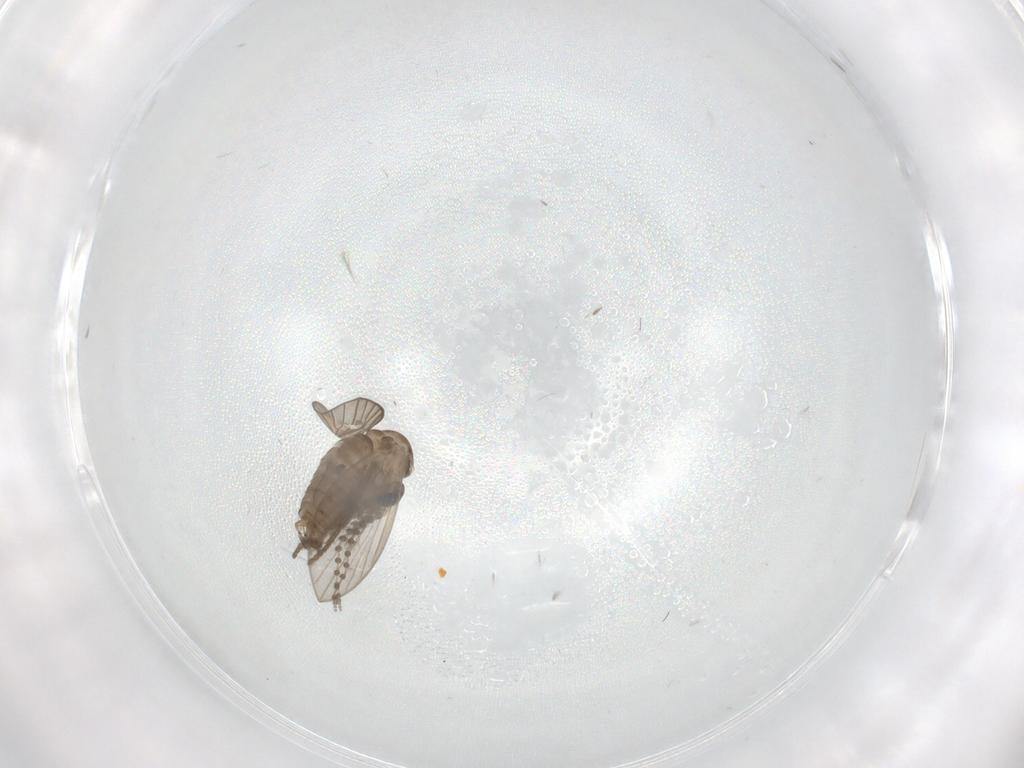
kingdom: Animalia
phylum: Arthropoda
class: Insecta
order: Diptera
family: Psychodidae
